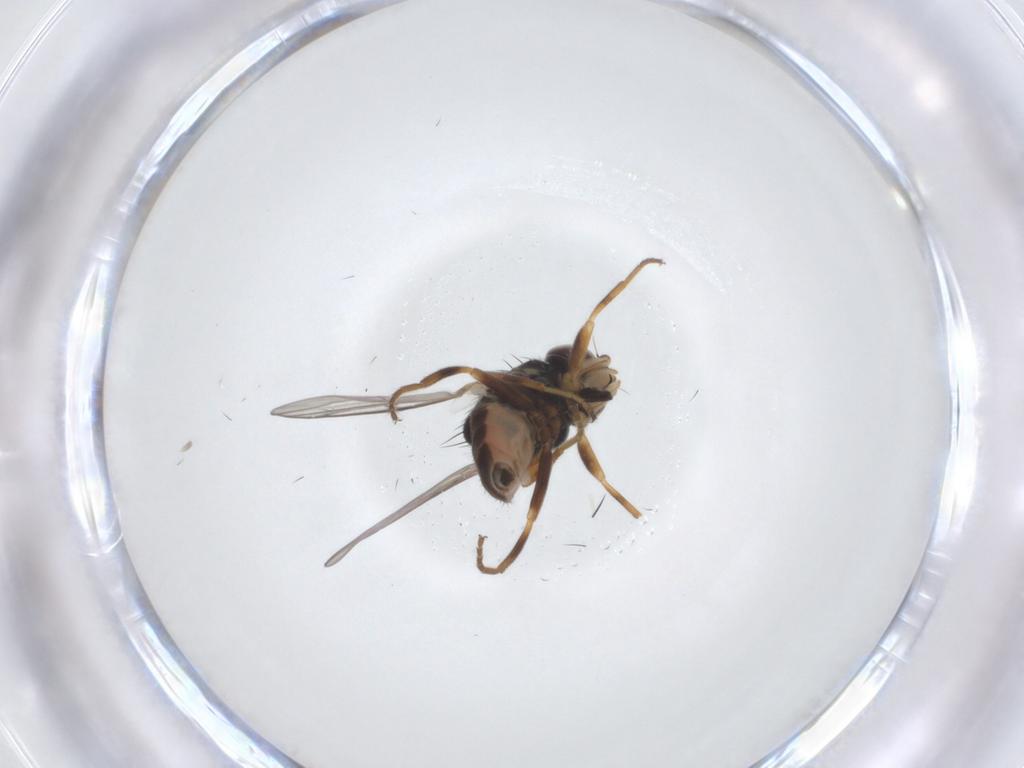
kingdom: Animalia
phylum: Arthropoda
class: Insecta
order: Diptera
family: Chloropidae
